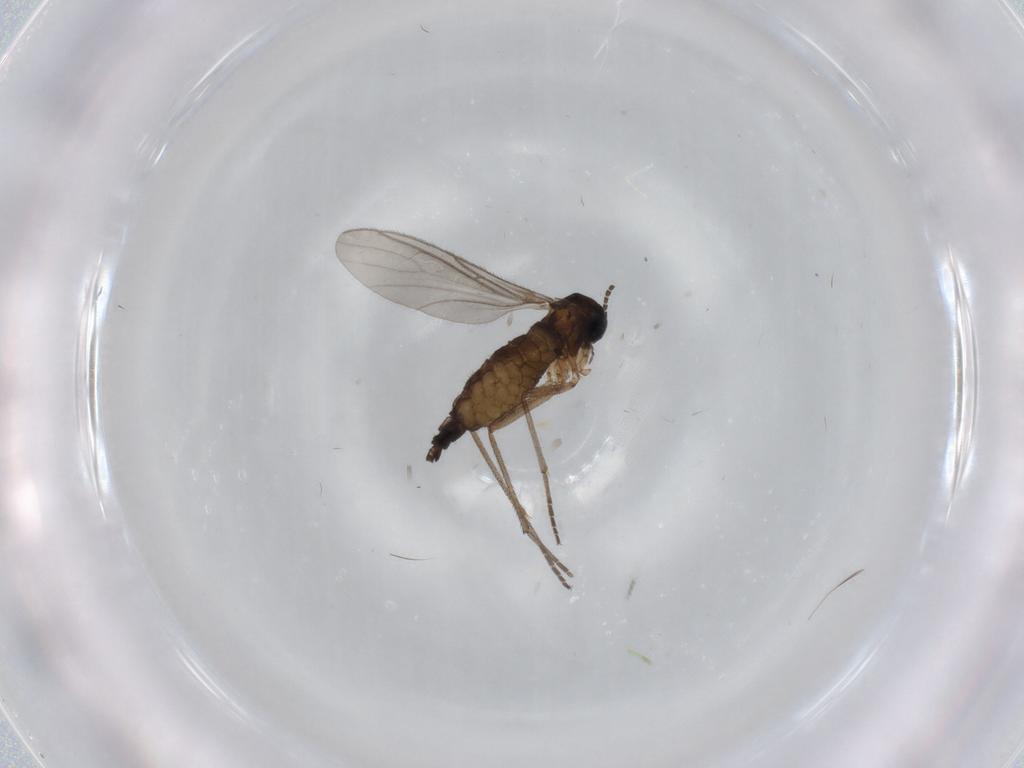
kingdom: Animalia
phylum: Arthropoda
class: Insecta
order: Diptera
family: Sciaridae
